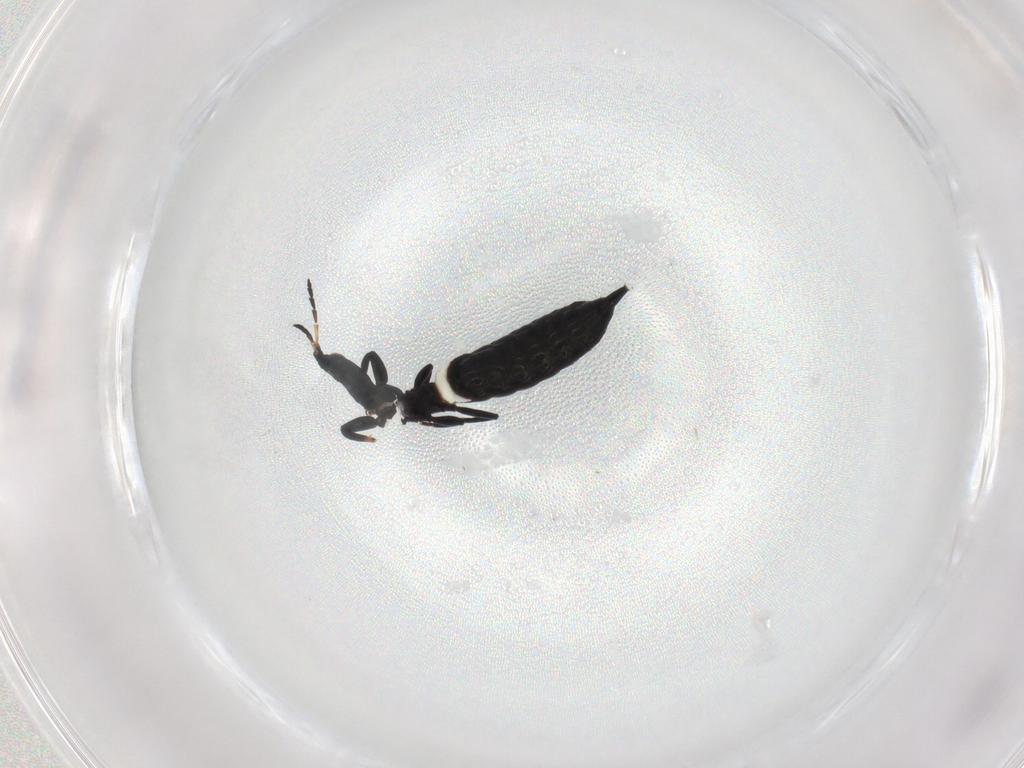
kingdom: Animalia
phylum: Arthropoda
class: Insecta
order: Thysanoptera
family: Phlaeothripidae
